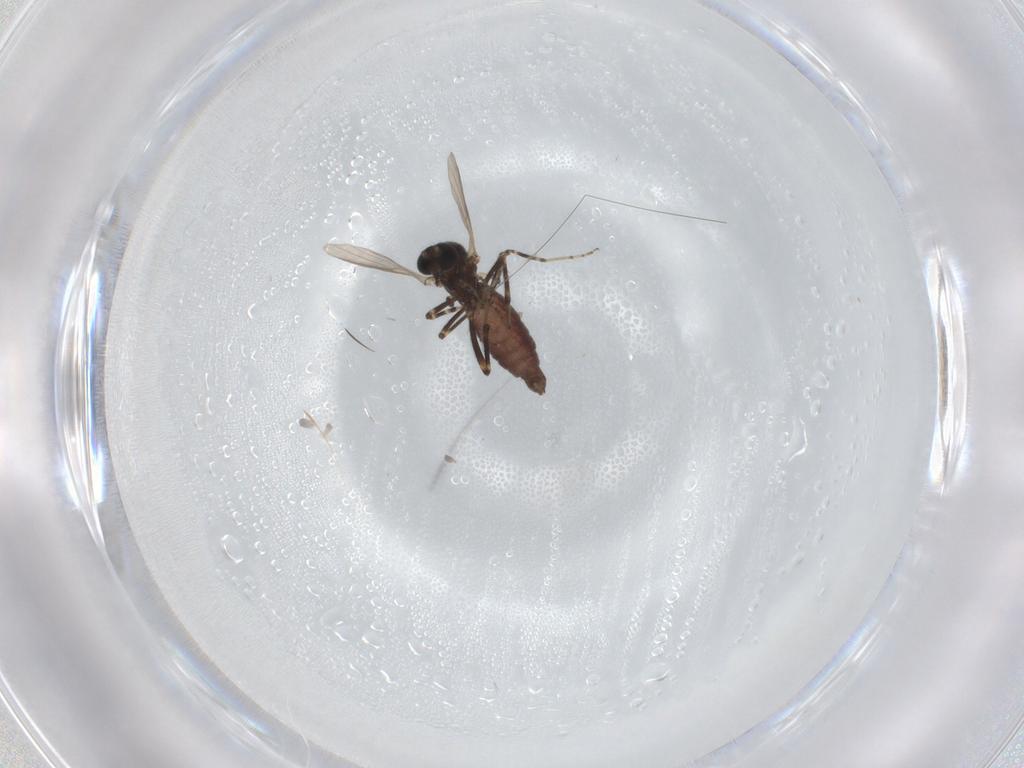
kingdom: Animalia
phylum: Arthropoda
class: Insecta
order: Diptera
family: Ceratopogonidae
